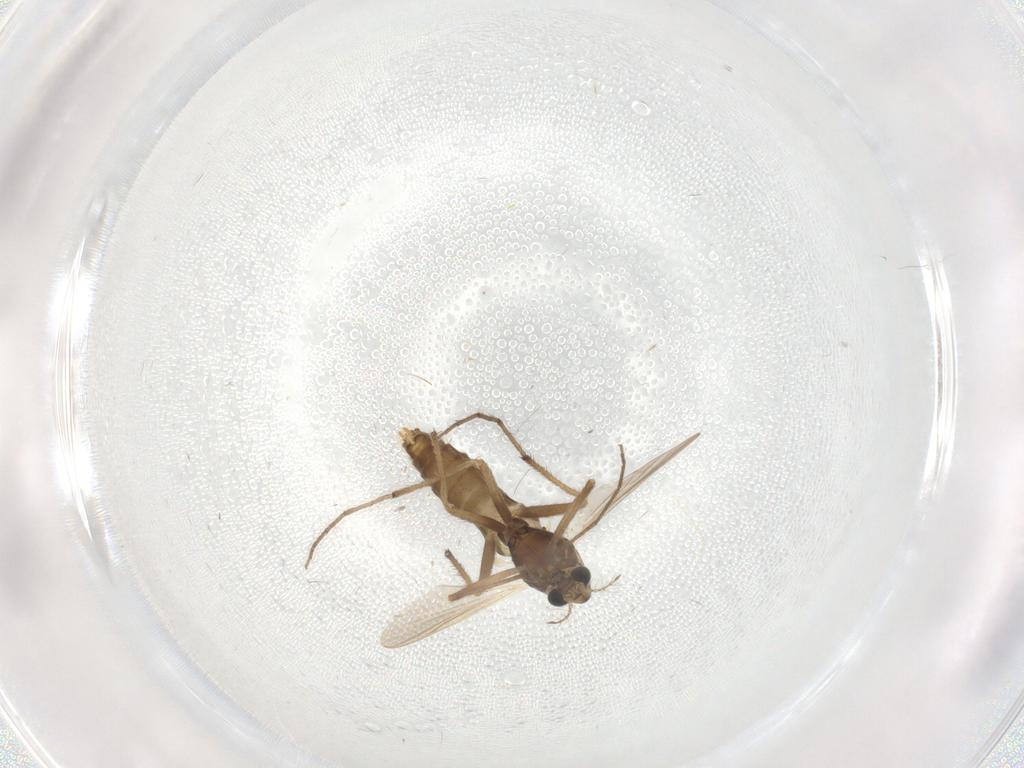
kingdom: Animalia
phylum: Arthropoda
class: Insecta
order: Diptera
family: Chironomidae
